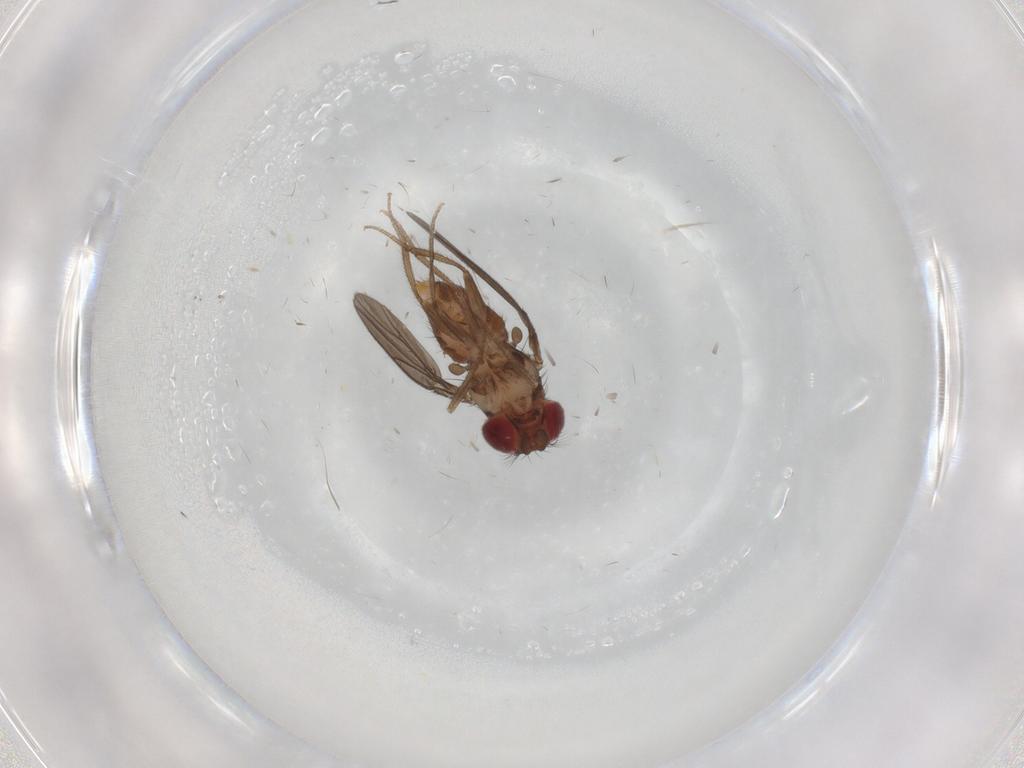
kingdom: Animalia
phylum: Arthropoda
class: Insecta
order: Diptera
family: Drosophilidae
